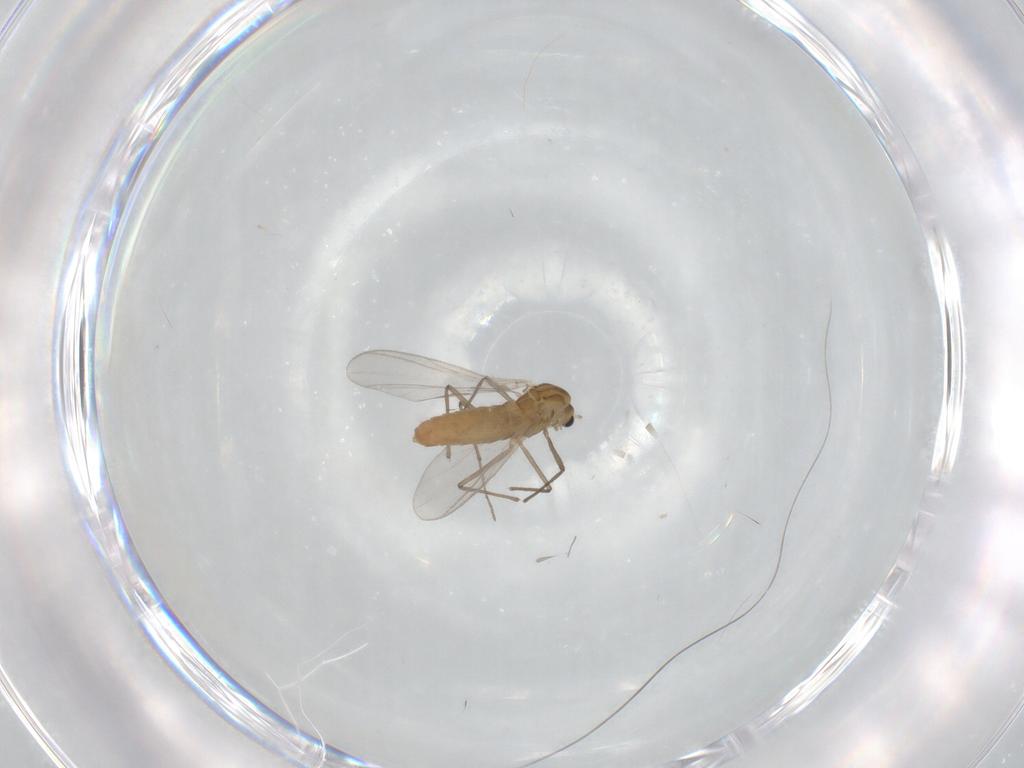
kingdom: Animalia
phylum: Arthropoda
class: Insecta
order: Diptera
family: Chironomidae
